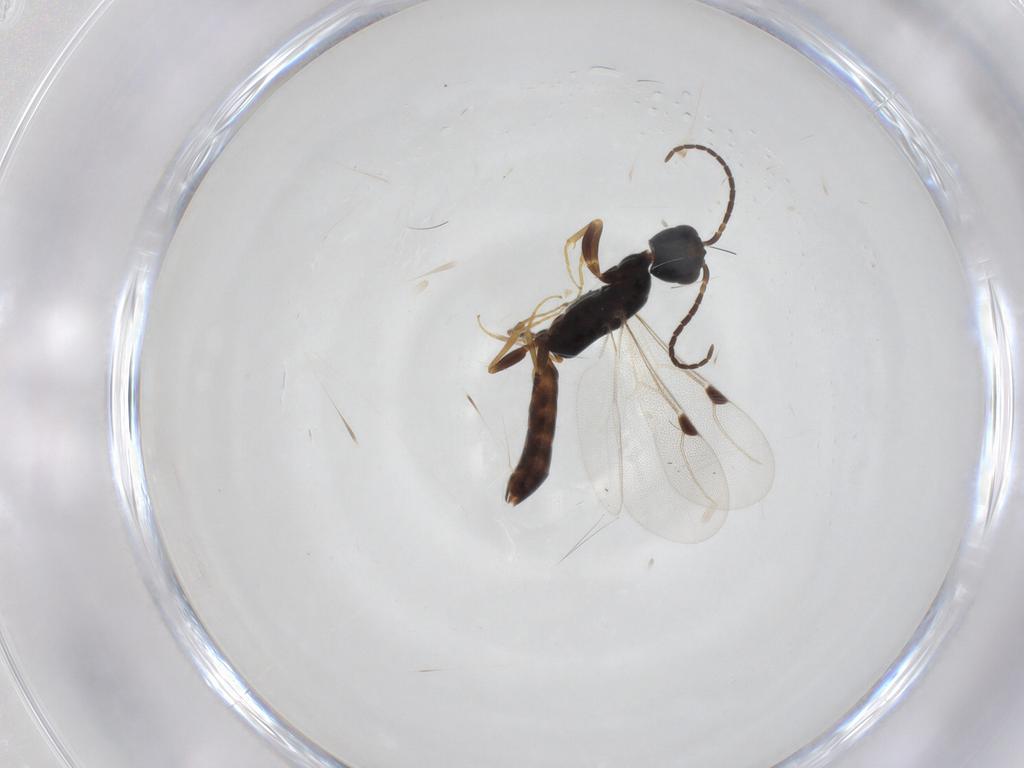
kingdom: Animalia
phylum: Arthropoda
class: Insecta
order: Hymenoptera
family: Bethylidae
